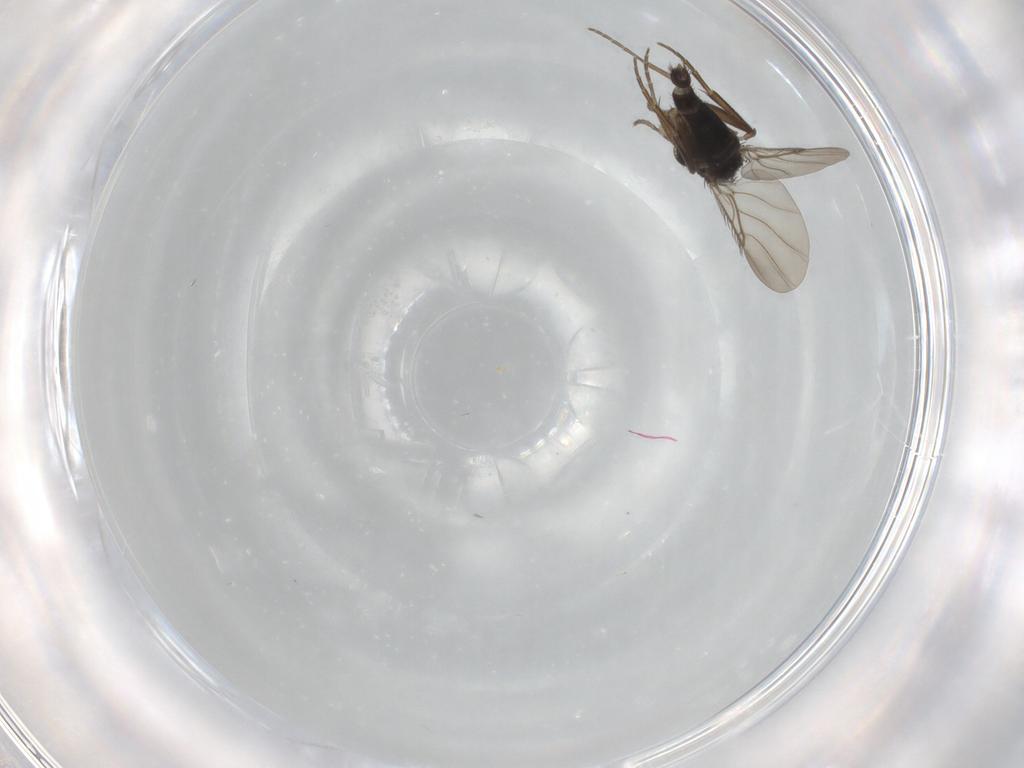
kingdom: Animalia
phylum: Arthropoda
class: Insecta
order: Diptera
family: Phoridae
